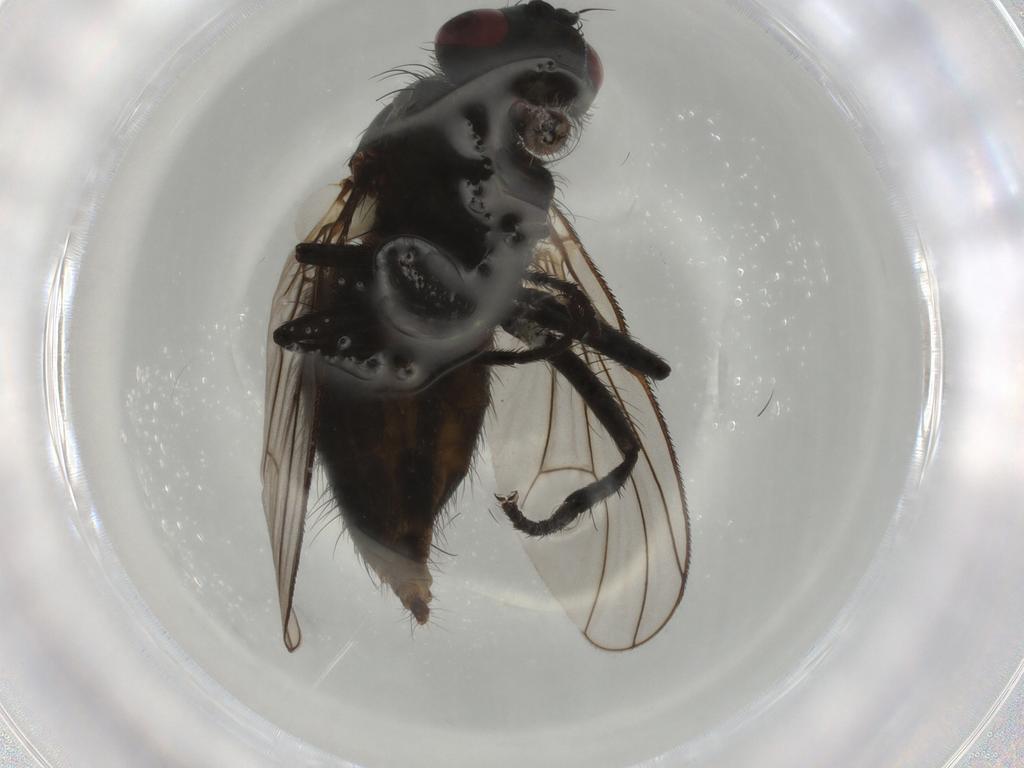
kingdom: Animalia
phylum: Arthropoda
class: Insecta
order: Diptera
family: Muscidae
